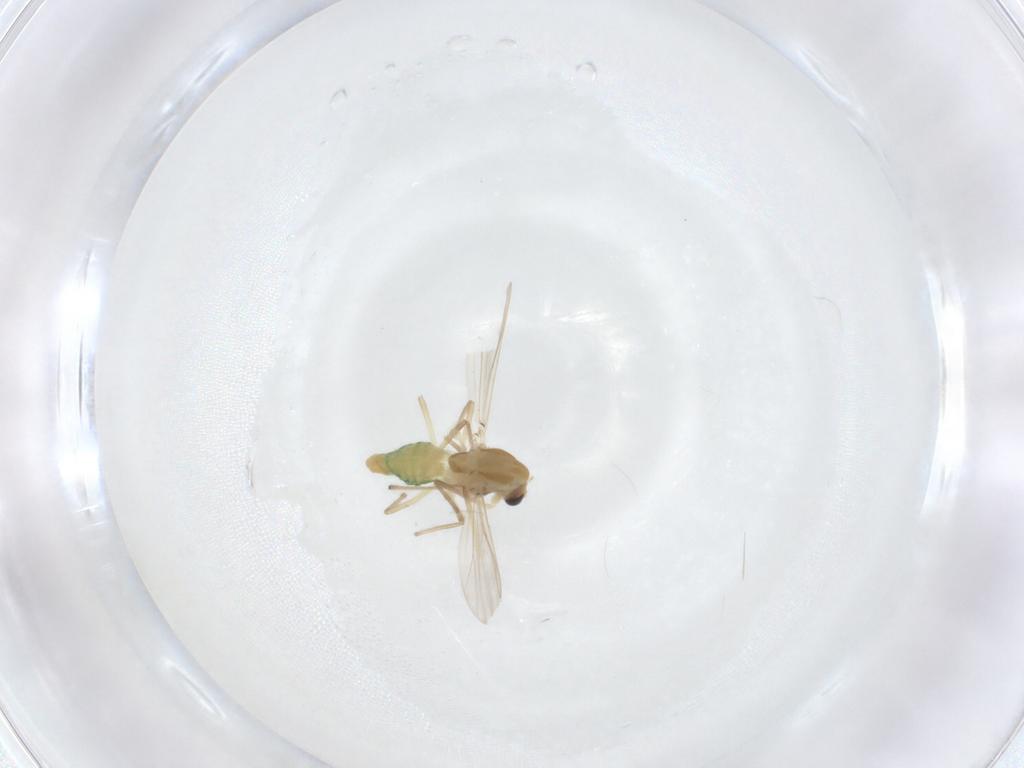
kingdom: Animalia
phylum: Arthropoda
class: Insecta
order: Diptera
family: Chironomidae
